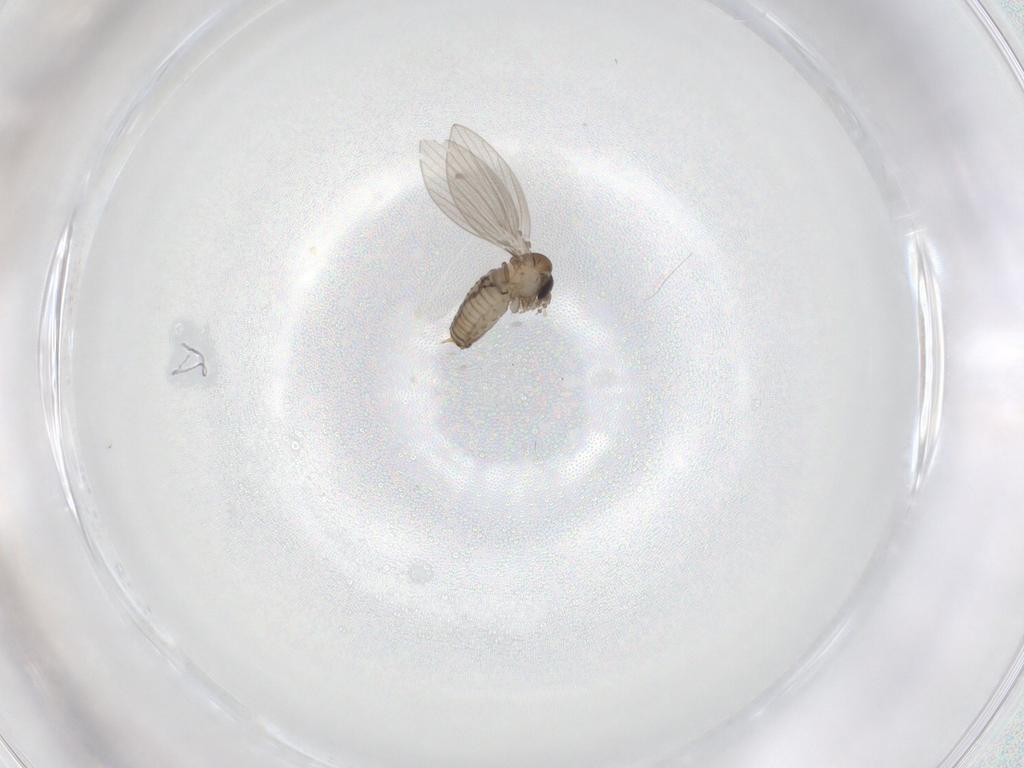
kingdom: Animalia
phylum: Arthropoda
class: Insecta
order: Diptera
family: Psychodidae
